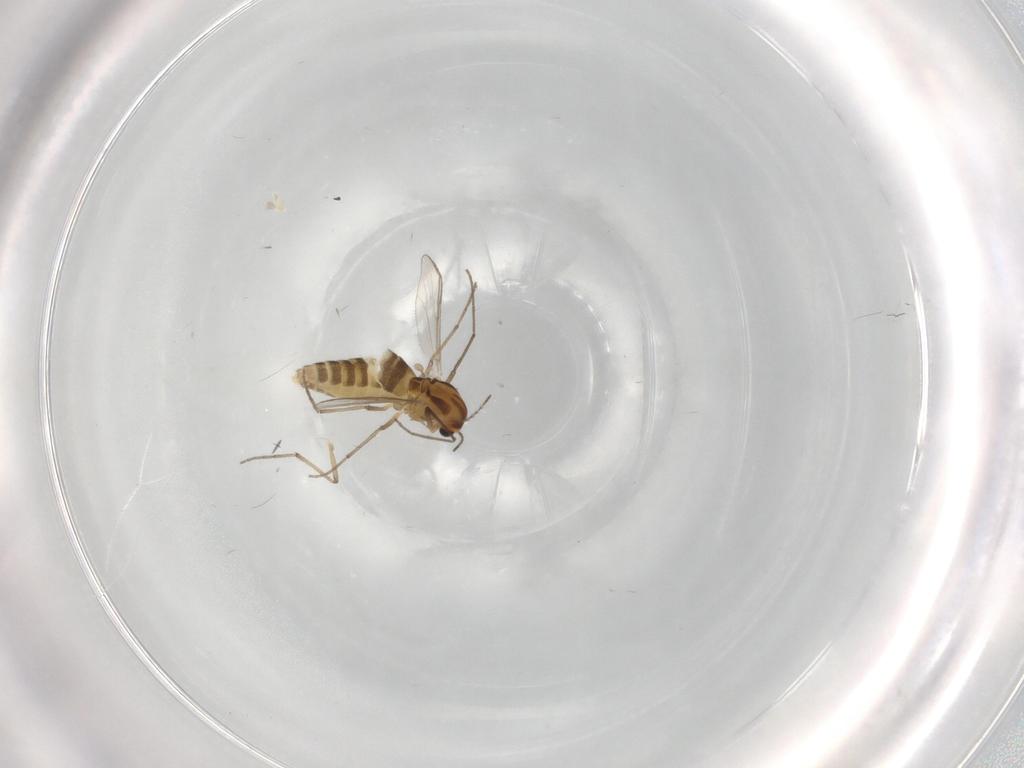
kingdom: Animalia
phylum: Arthropoda
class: Insecta
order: Diptera
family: Chironomidae
